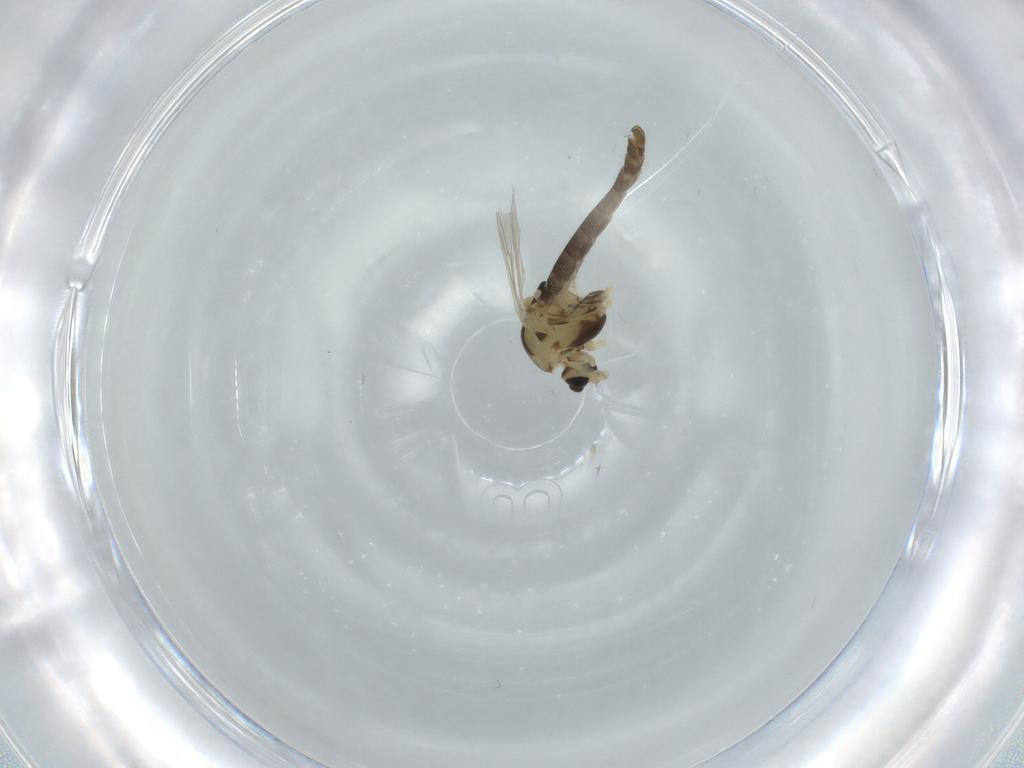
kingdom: Animalia
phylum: Arthropoda
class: Insecta
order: Diptera
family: Chironomidae
